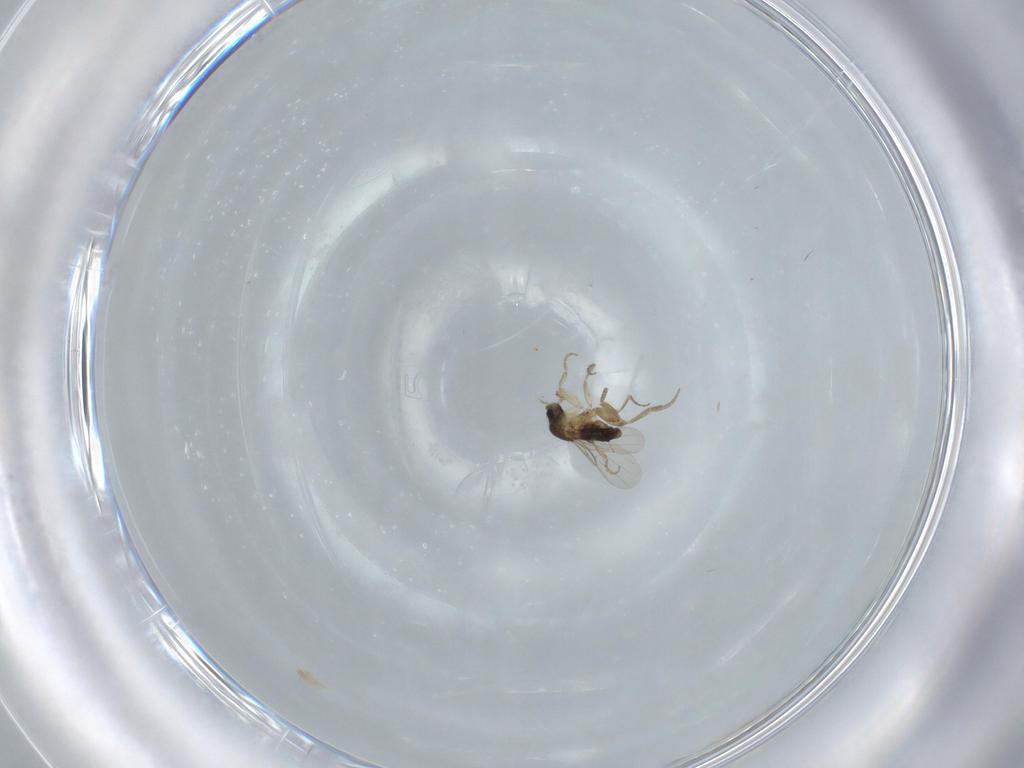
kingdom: Animalia
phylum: Arthropoda
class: Insecta
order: Diptera
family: Phoridae
